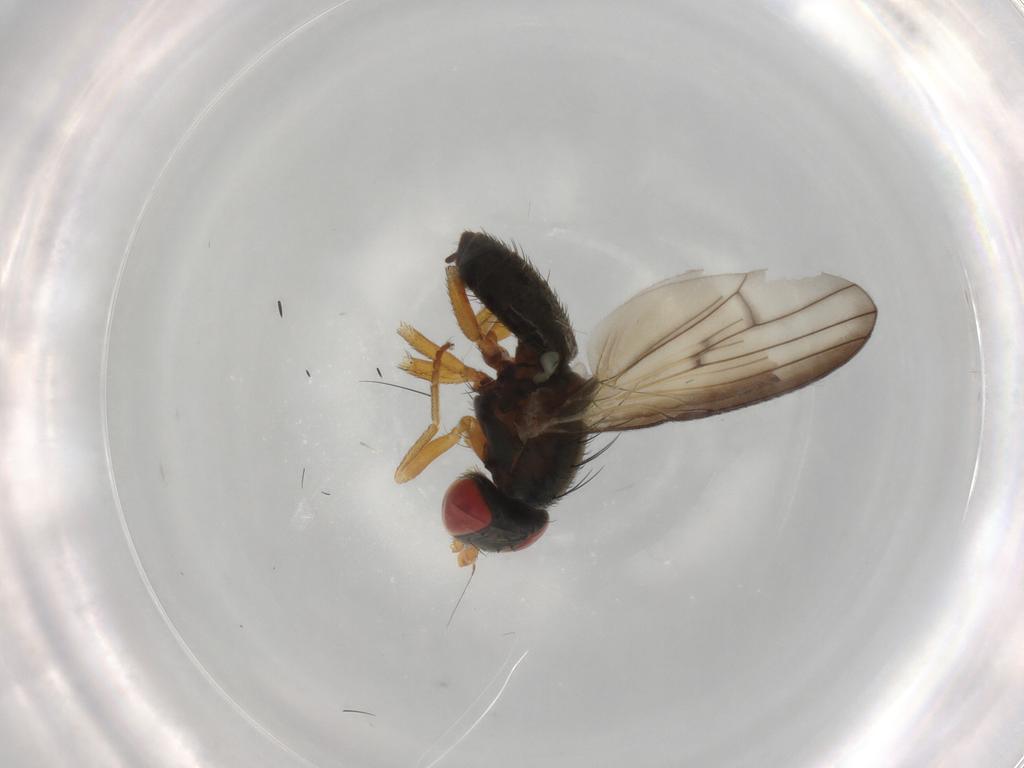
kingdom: Animalia
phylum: Arthropoda
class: Insecta
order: Diptera
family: Chamaemyiidae
